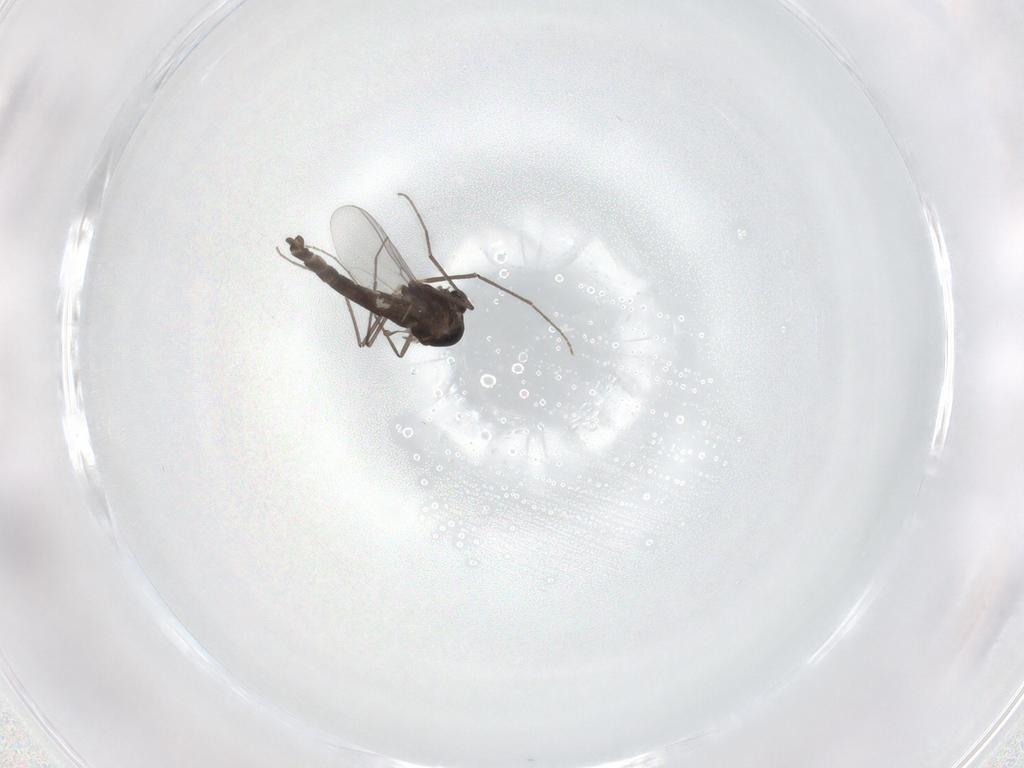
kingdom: Animalia
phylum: Arthropoda
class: Insecta
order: Diptera
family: Chironomidae
